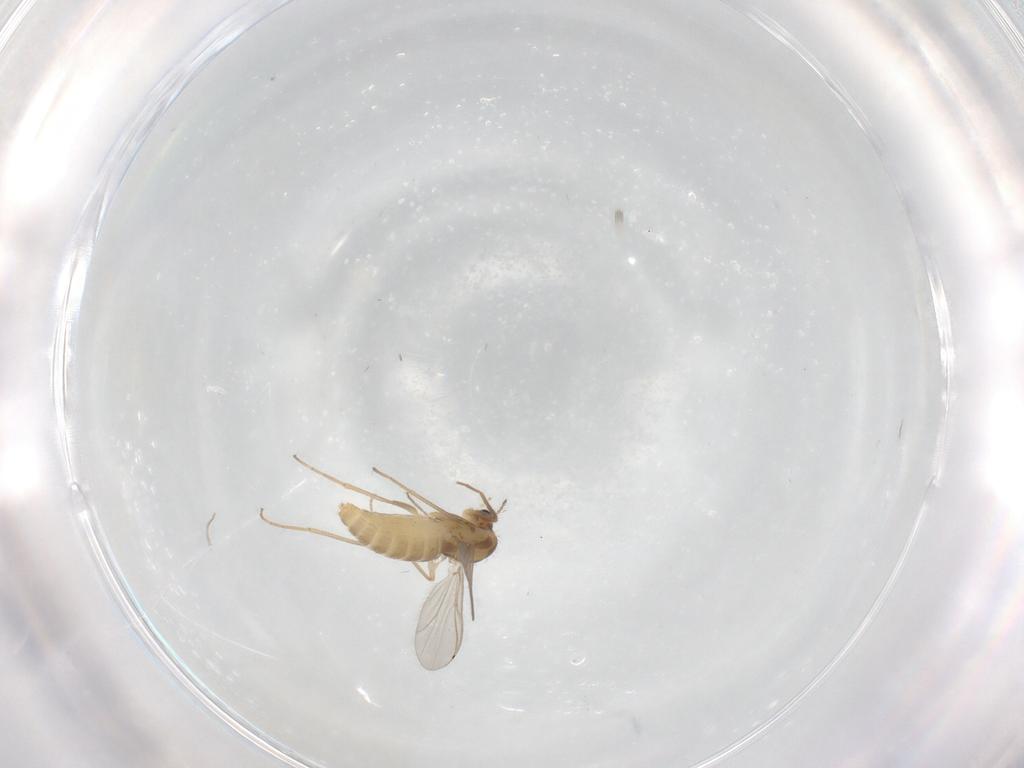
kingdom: Animalia
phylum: Arthropoda
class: Insecta
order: Diptera
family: Chironomidae
